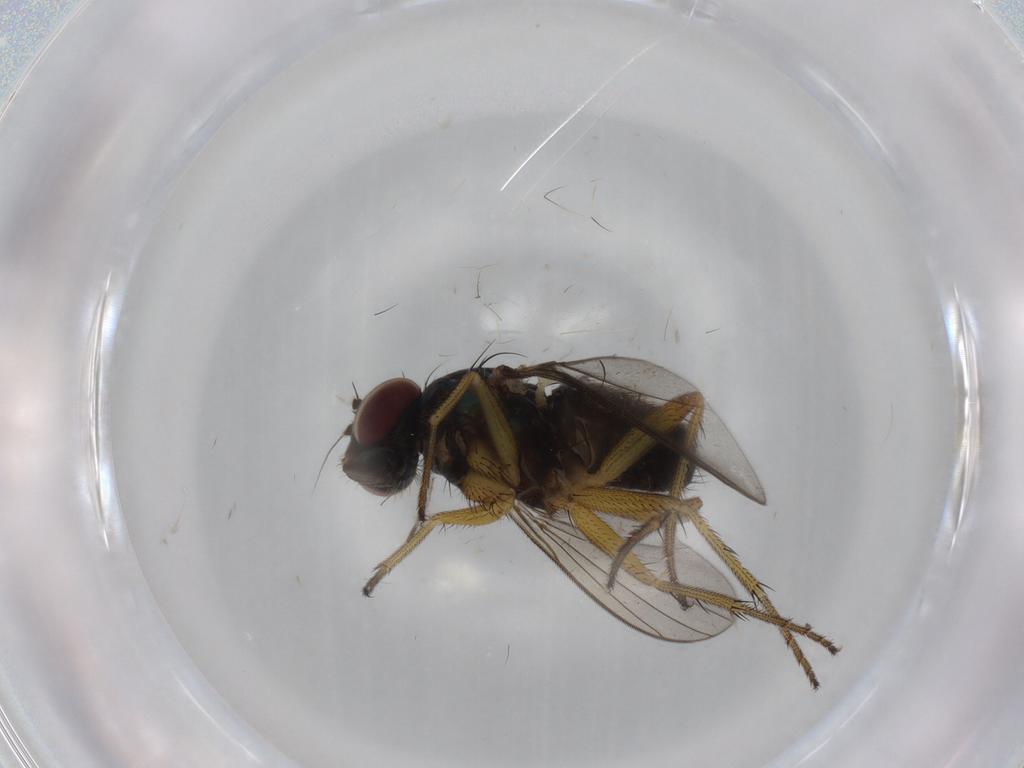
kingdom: Animalia
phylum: Arthropoda
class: Insecta
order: Diptera
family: Dolichopodidae
